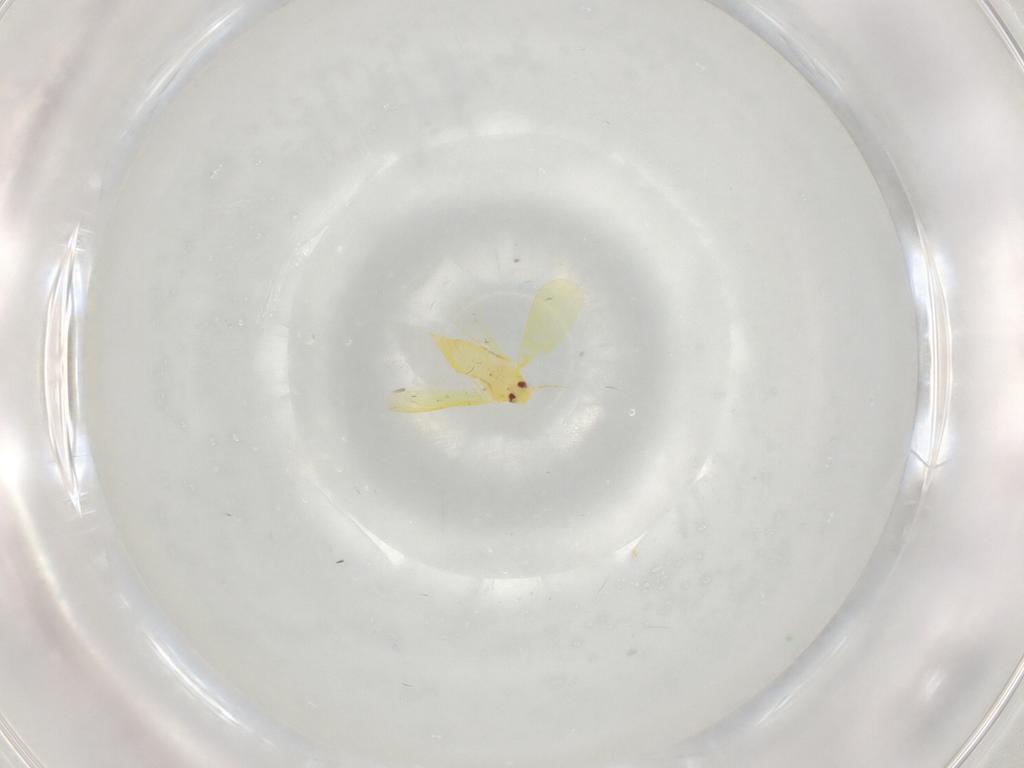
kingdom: Animalia
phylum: Arthropoda
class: Insecta
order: Hemiptera
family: Aleyrodidae
